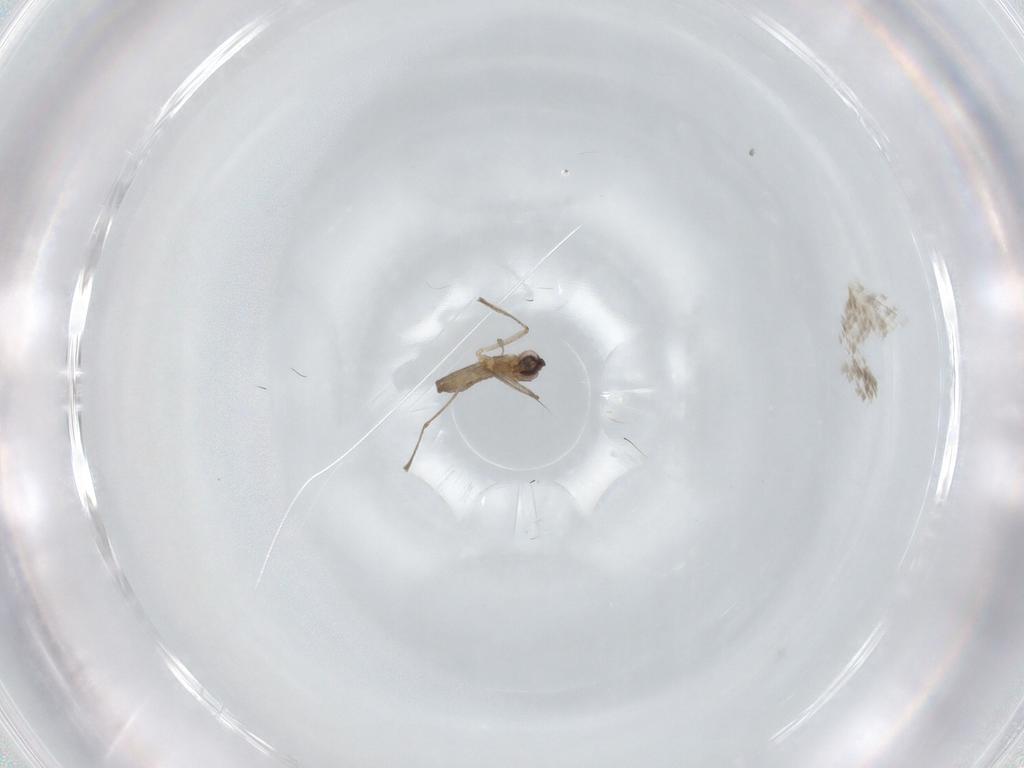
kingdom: Animalia
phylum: Arthropoda
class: Insecta
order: Diptera
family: Cecidomyiidae
